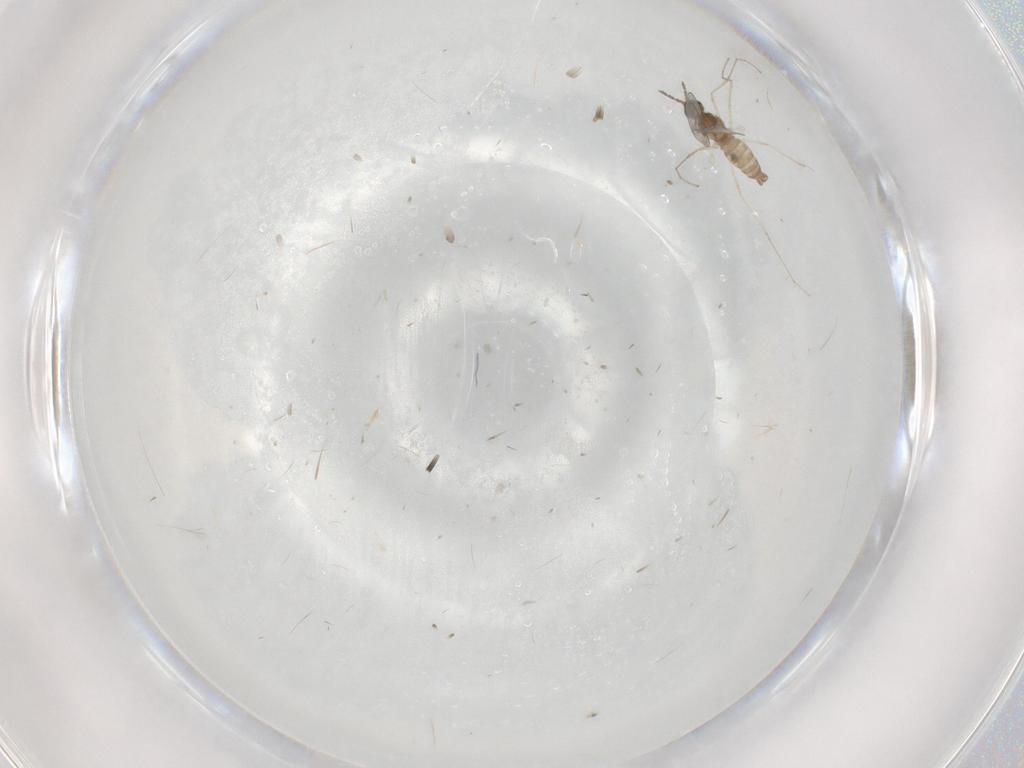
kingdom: Animalia
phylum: Arthropoda
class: Insecta
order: Diptera
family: Cecidomyiidae
